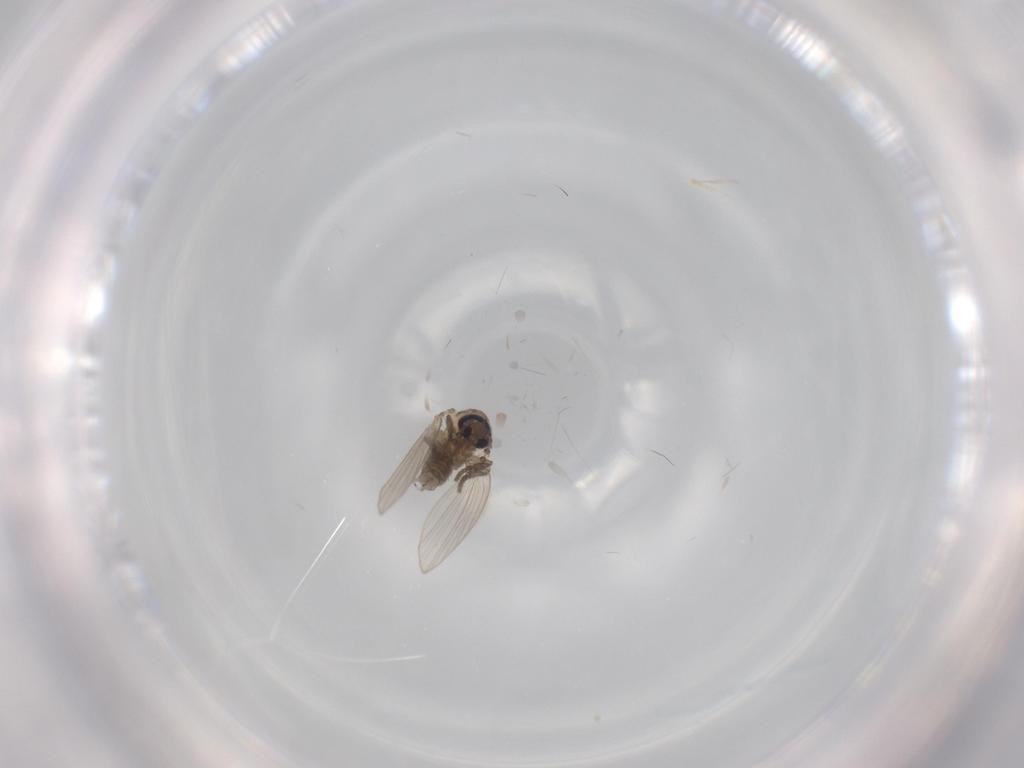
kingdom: Animalia
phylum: Arthropoda
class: Insecta
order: Diptera
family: Psychodidae
